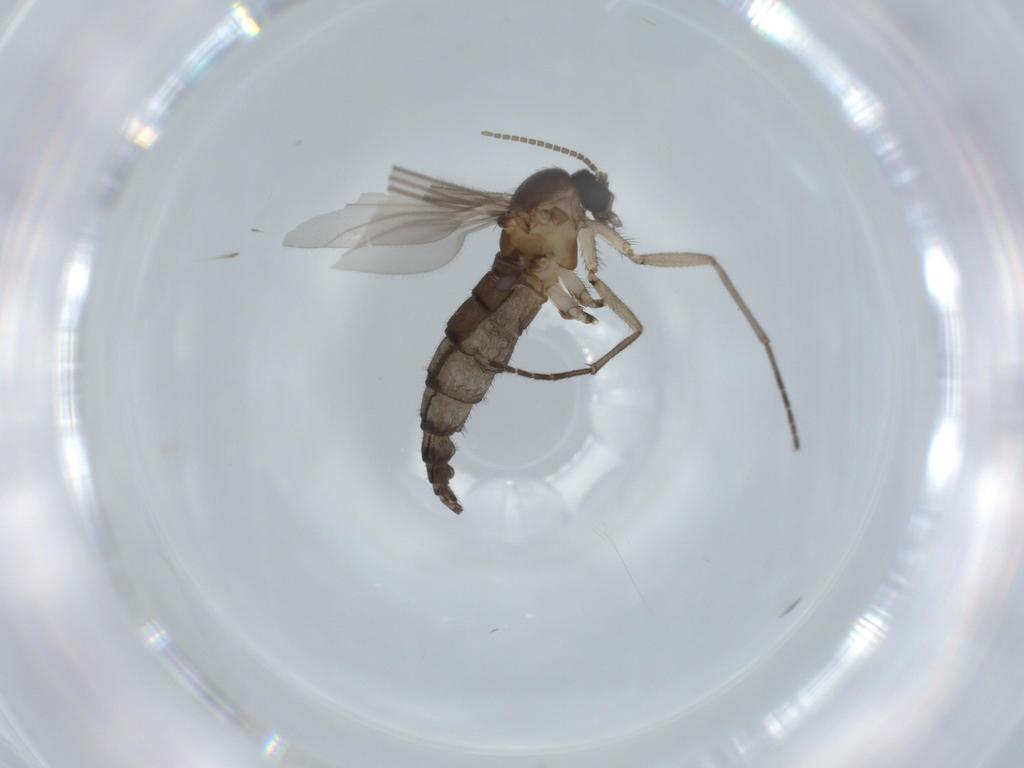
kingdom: Animalia
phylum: Arthropoda
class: Insecta
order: Diptera
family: Sciaridae
